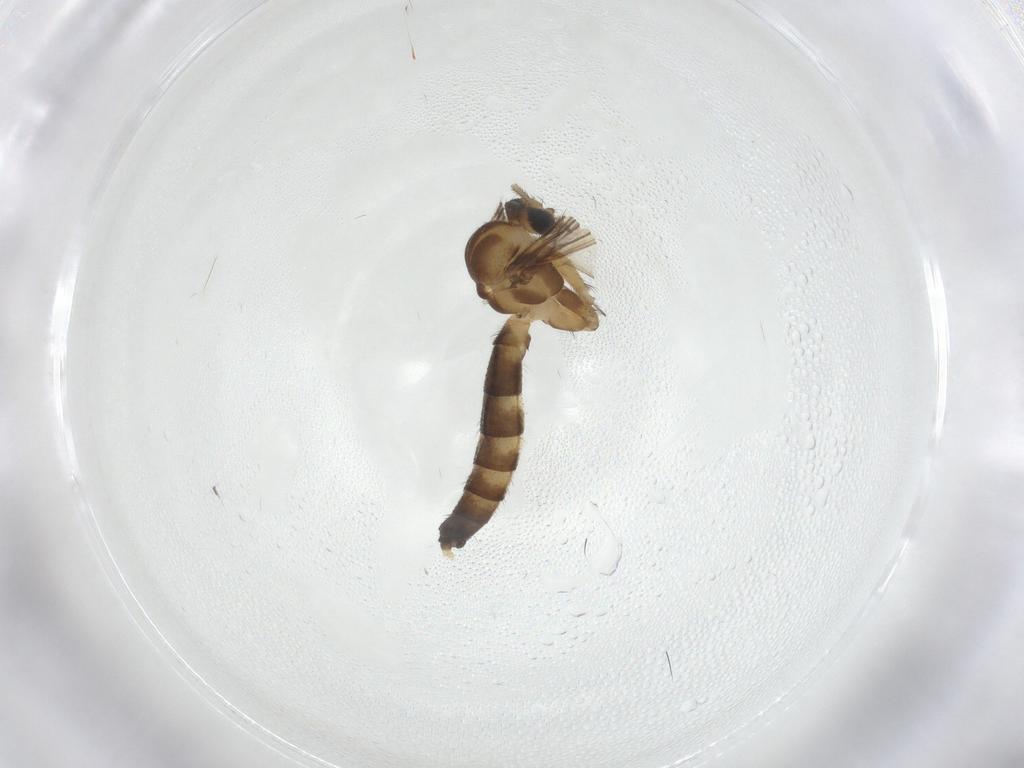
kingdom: Animalia
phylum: Arthropoda
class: Insecta
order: Diptera
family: Keroplatidae
